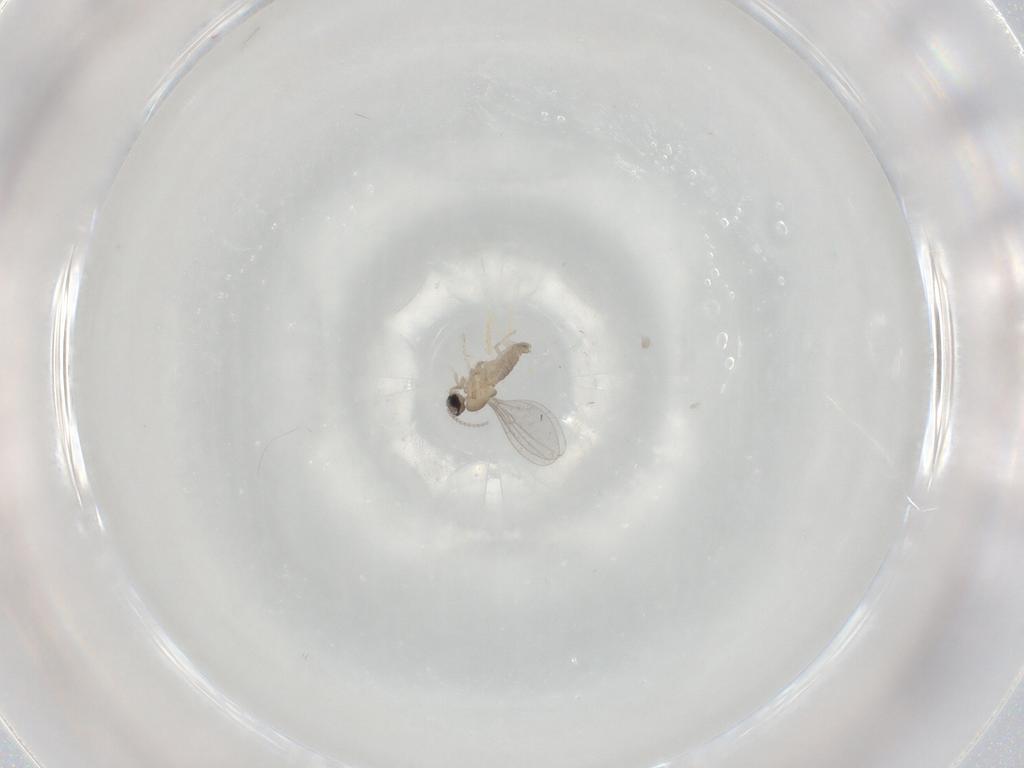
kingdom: Animalia
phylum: Arthropoda
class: Insecta
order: Diptera
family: Cecidomyiidae
